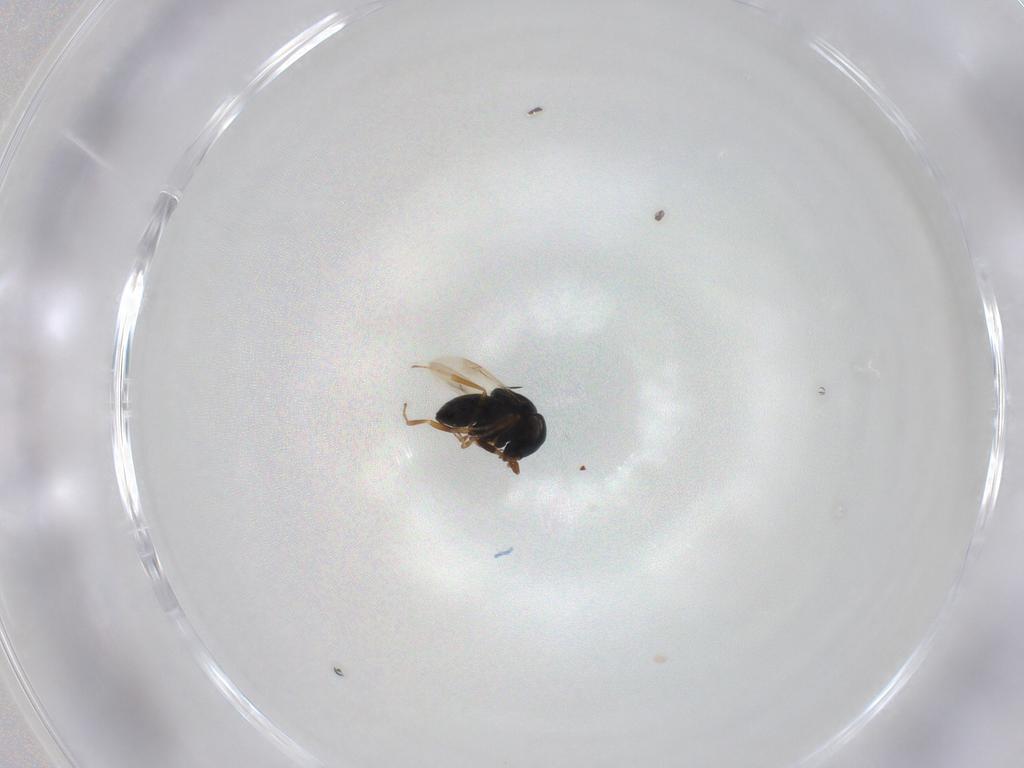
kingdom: Animalia
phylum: Arthropoda
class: Insecta
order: Hymenoptera
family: Scelionidae
